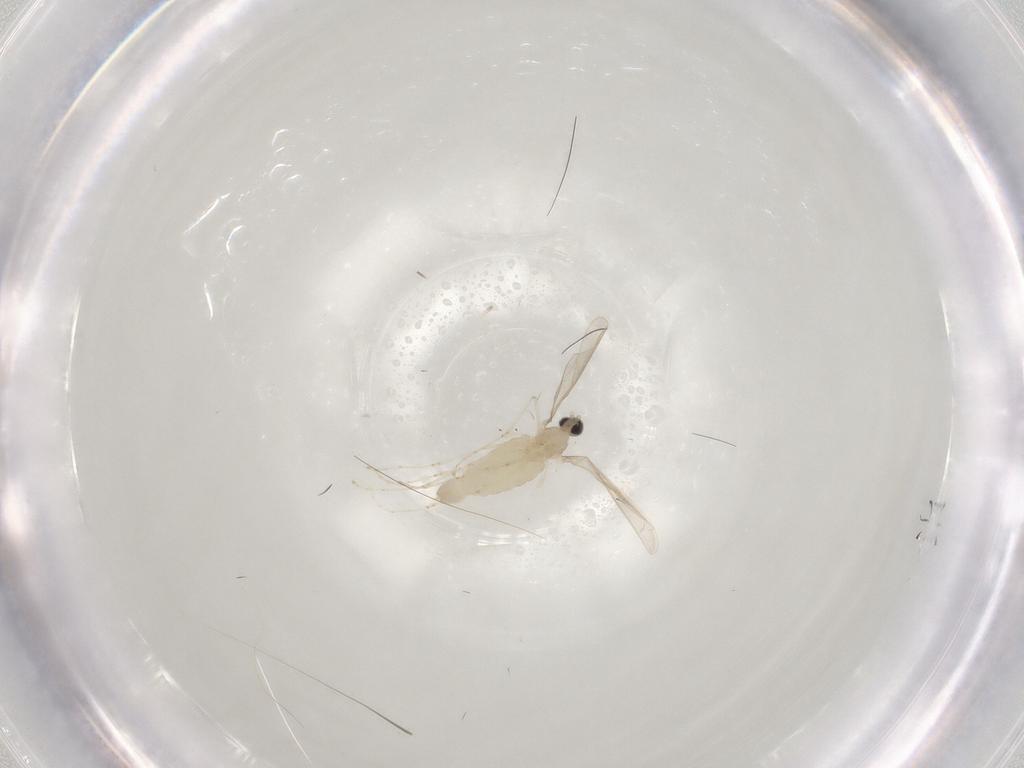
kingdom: Animalia
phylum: Arthropoda
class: Insecta
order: Diptera
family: Cecidomyiidae
